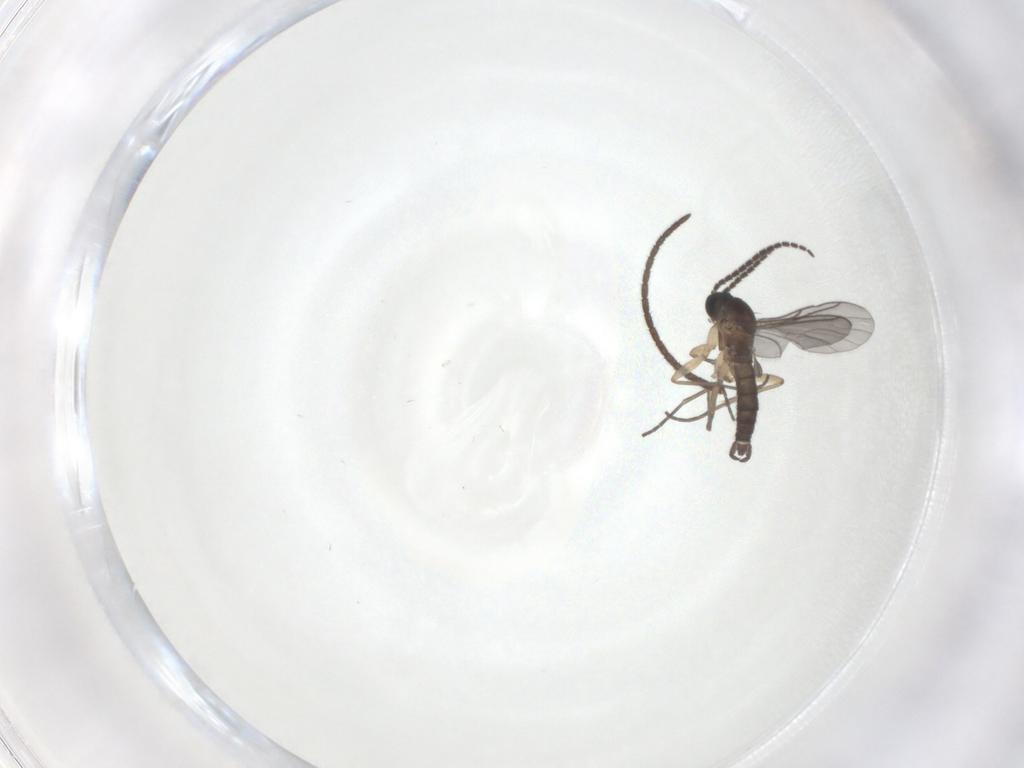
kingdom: Animalia
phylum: Arthropoda
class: Insecta
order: Diptera
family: Sciaridae
